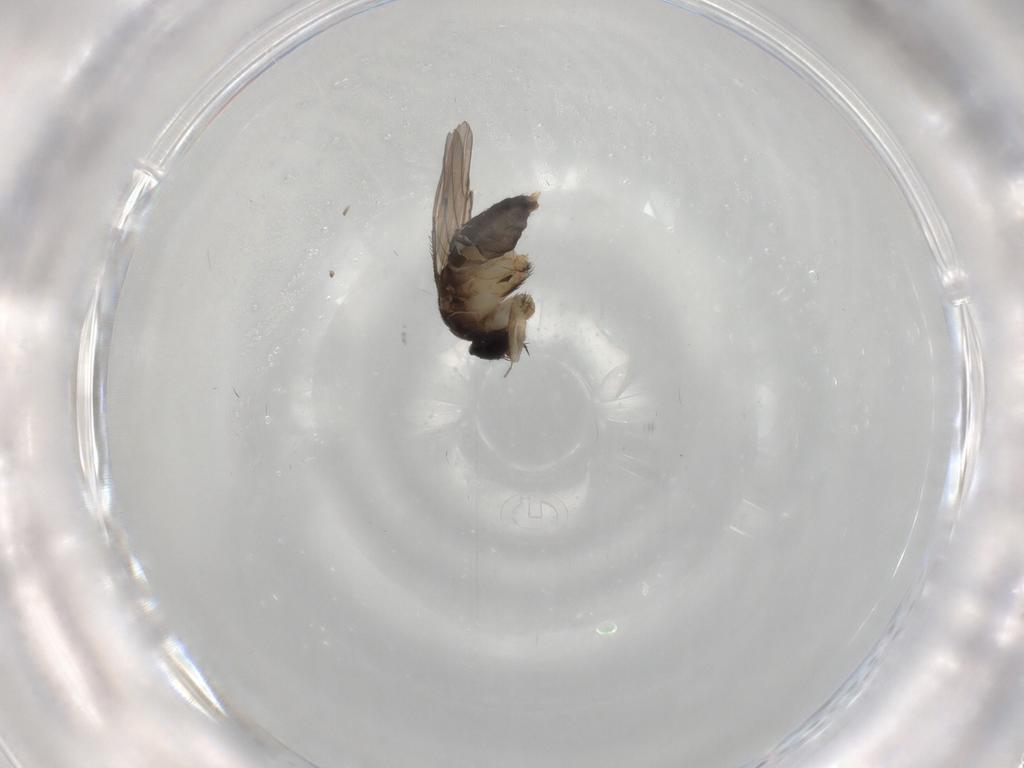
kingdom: Animalia
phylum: Arthropoda
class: Insecta
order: Diptera
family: Phoridae
